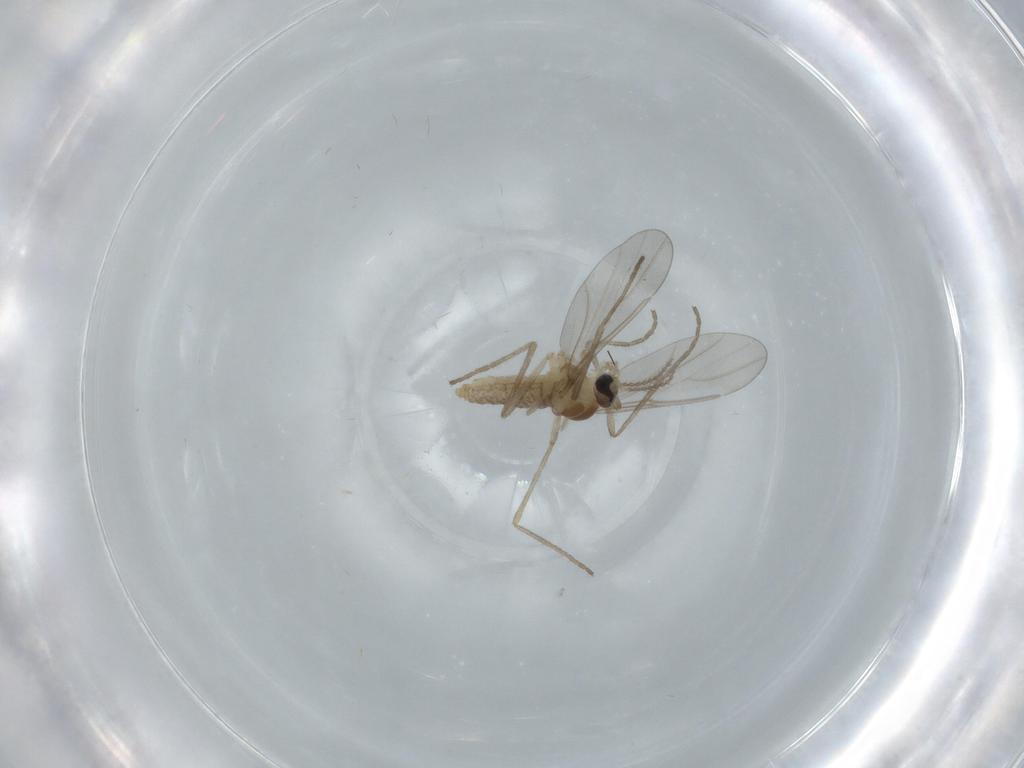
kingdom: Animalia
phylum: Arthropoda
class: Insecta
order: Diptera
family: Cecidomyiidae
